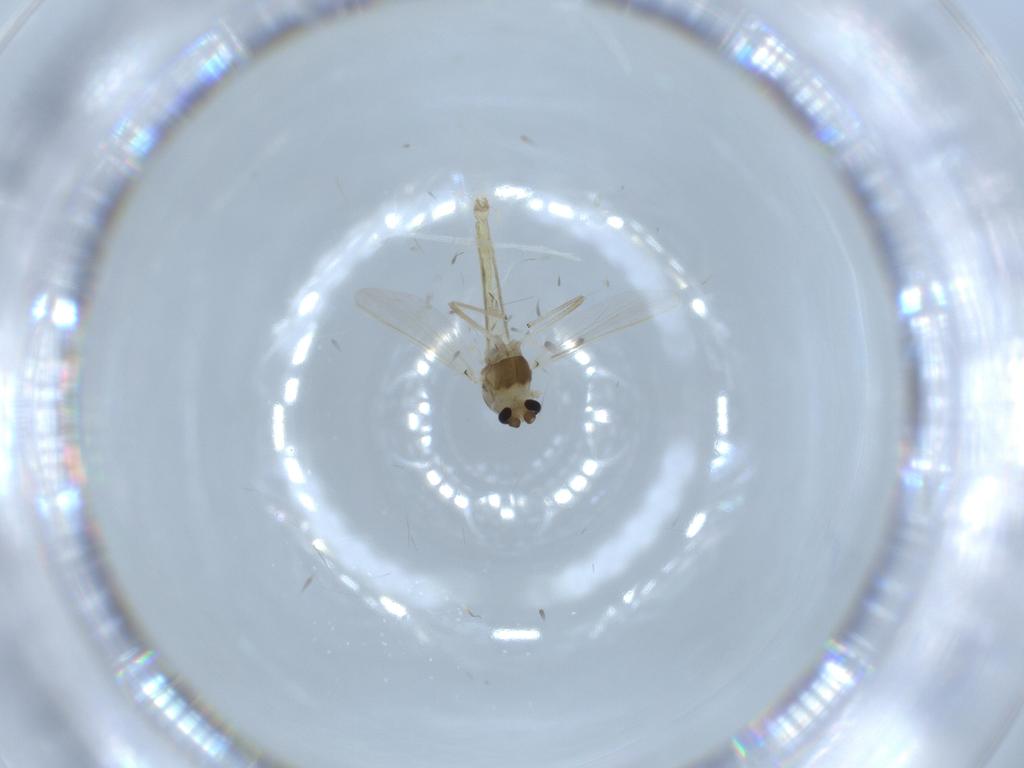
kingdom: Animalia
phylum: Arthropoda
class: Insecta
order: Diptera
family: Chironomidae
